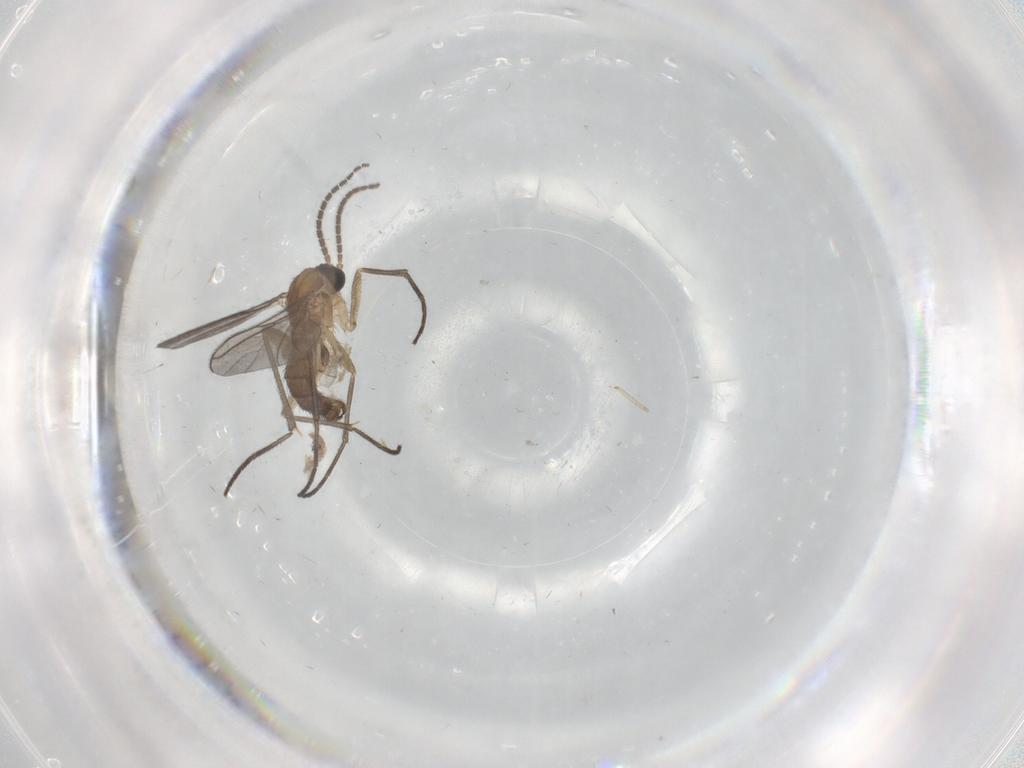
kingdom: Animalia
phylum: Arthropoda
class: Insecta
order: Diptera
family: Sciaridae
